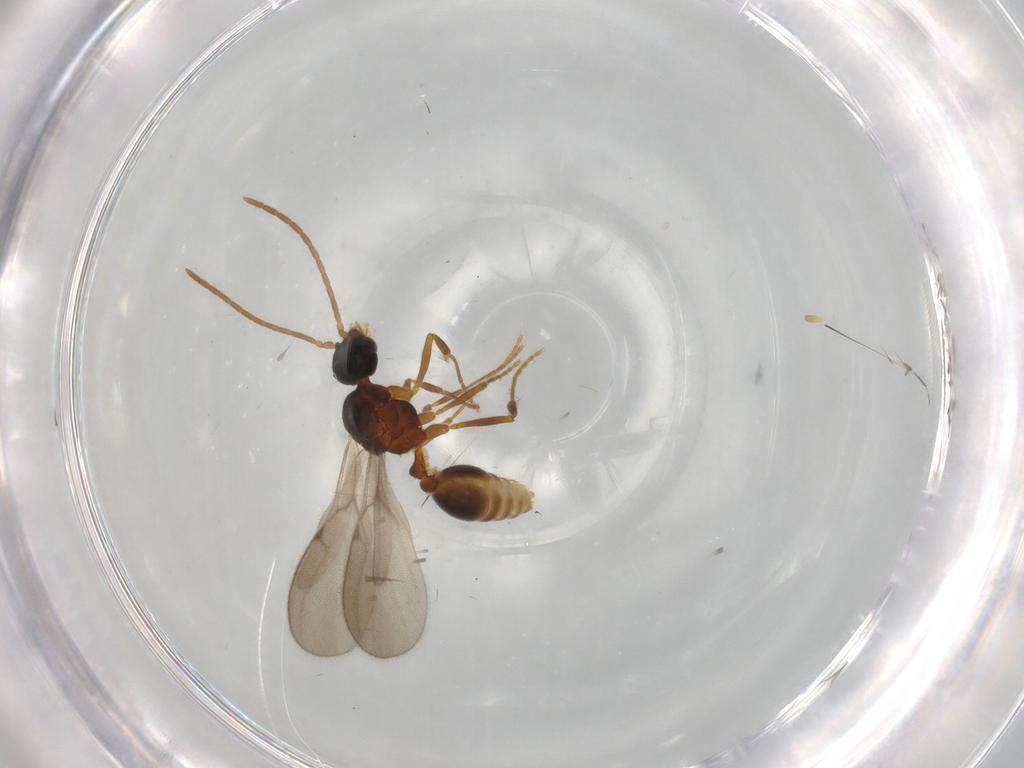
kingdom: Animalia
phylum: Arthropoda
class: Insecta
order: Hymenoptera
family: Formicidae
